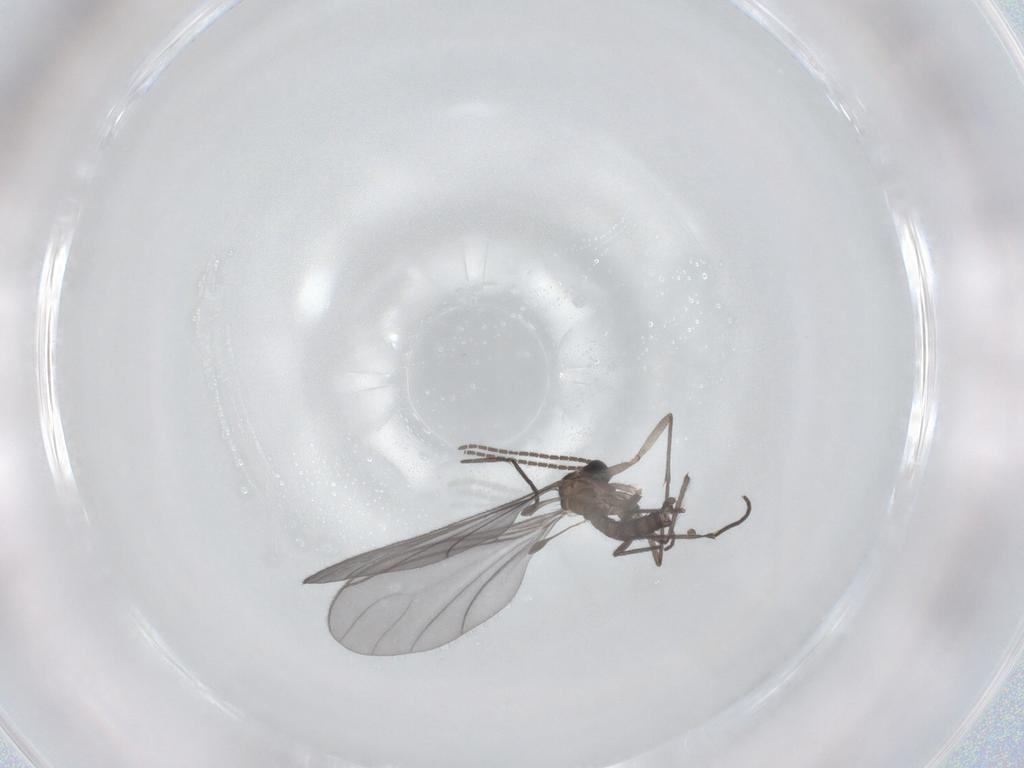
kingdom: Animalia
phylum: Arthropoda
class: Insecta
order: Diptera
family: Sciaridae
